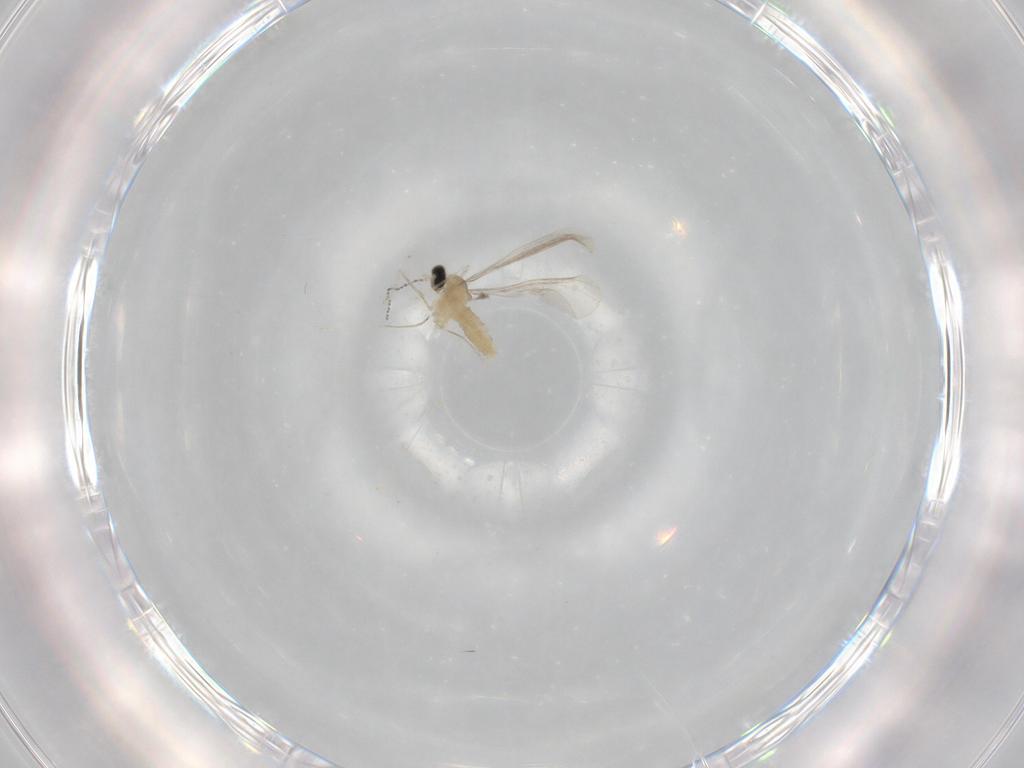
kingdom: Animalia
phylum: Arthropoda
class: Insecta
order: Diptera
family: Cecidomyiidae
